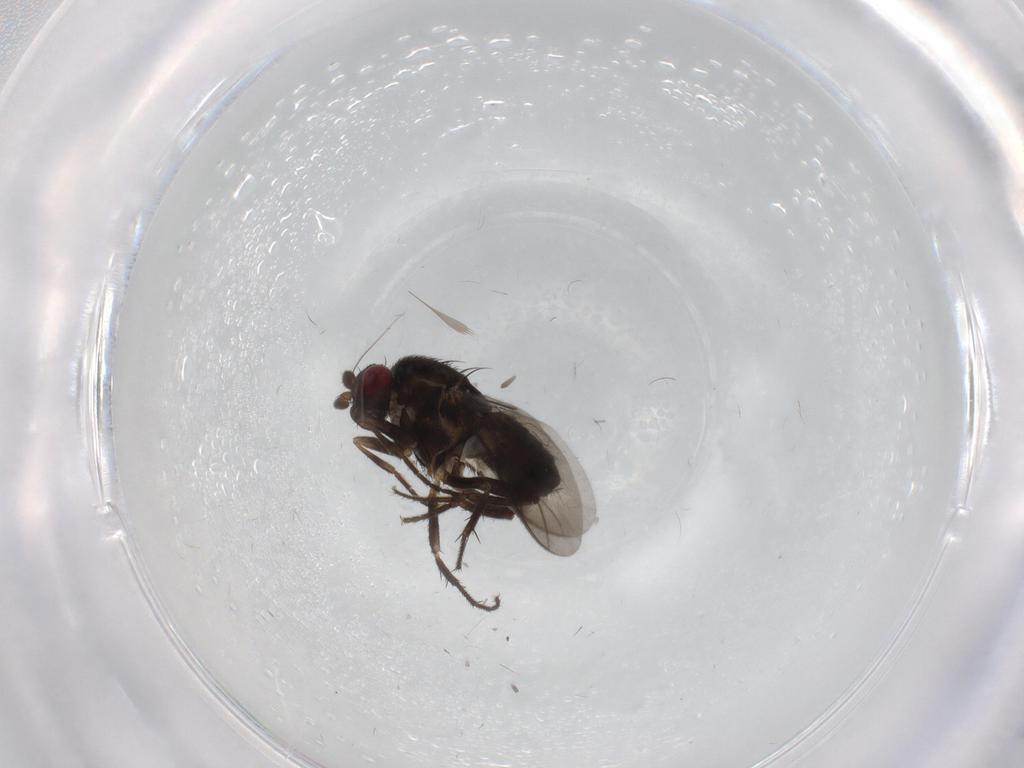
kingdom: Animalia
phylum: Arthropoda
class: Insecta
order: Diptera
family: Sphaeroceridae
